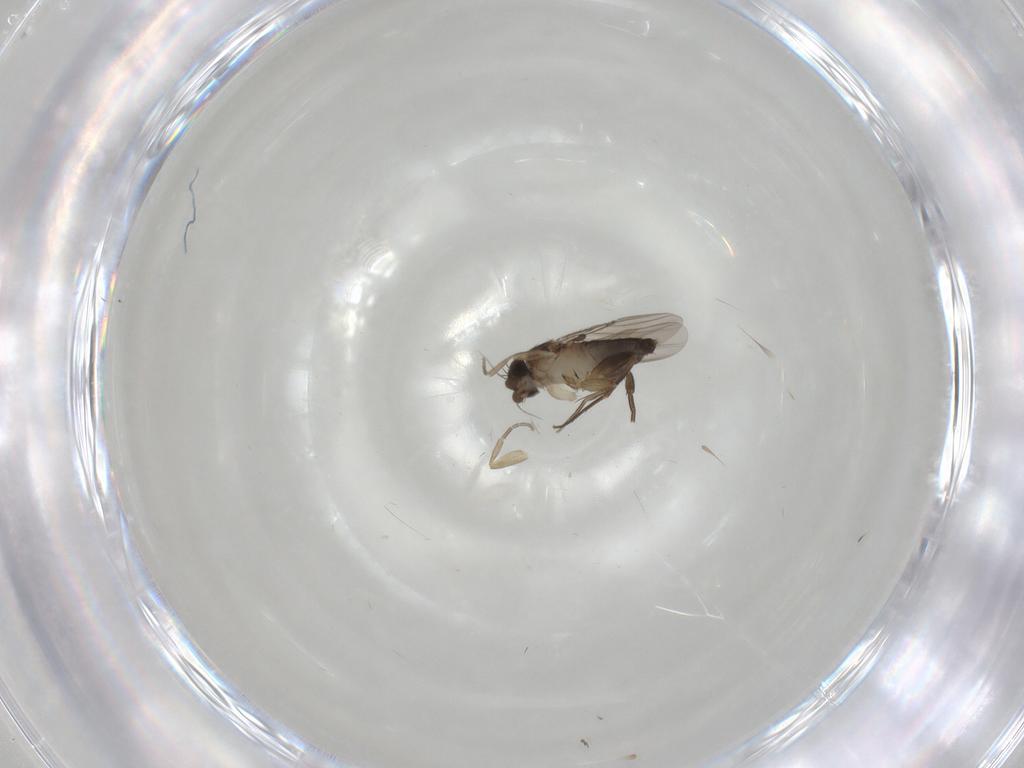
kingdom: Animalia
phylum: Arthropoda
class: Insecta
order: Diptera
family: Phoridae
